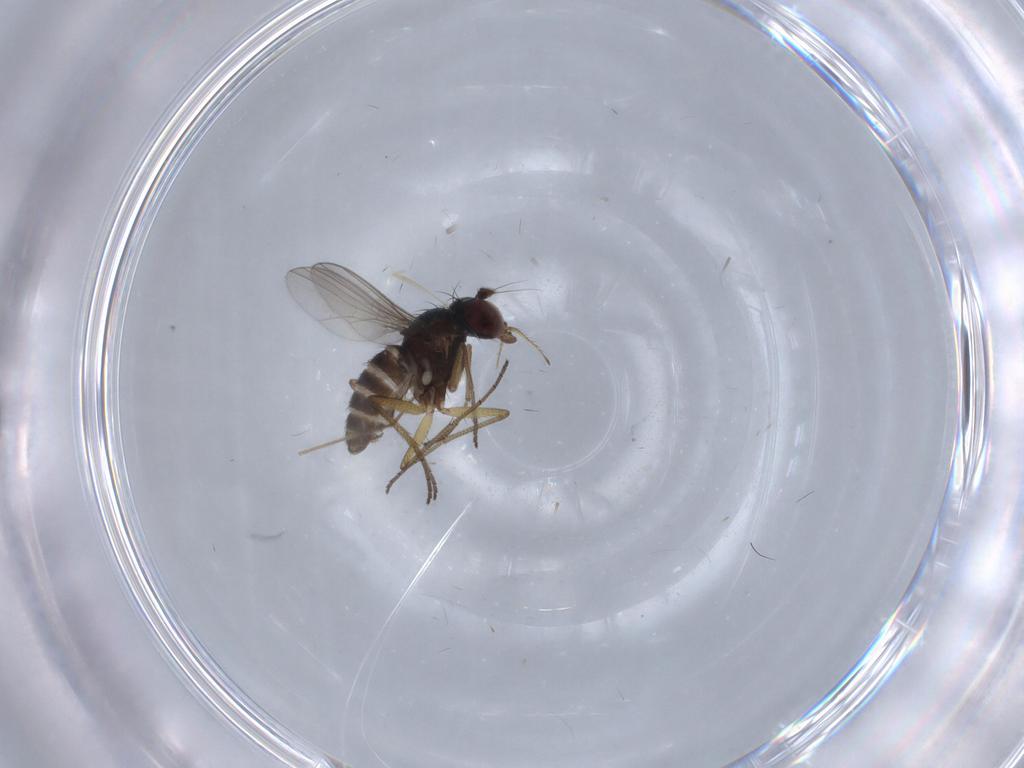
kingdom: Animalia
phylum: Arthropoda
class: Insecta
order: Diptera
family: Dolichopodidae
